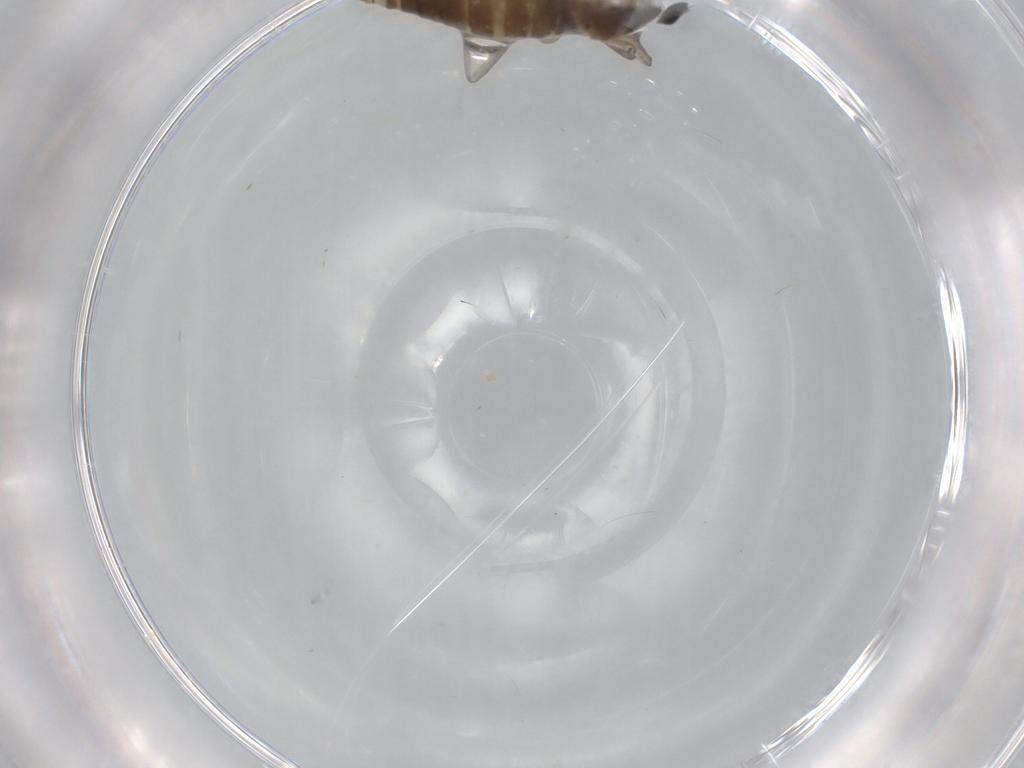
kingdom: Animalia
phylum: Arthropoda
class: Insecta
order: Diptera
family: Cecidomyiidae
